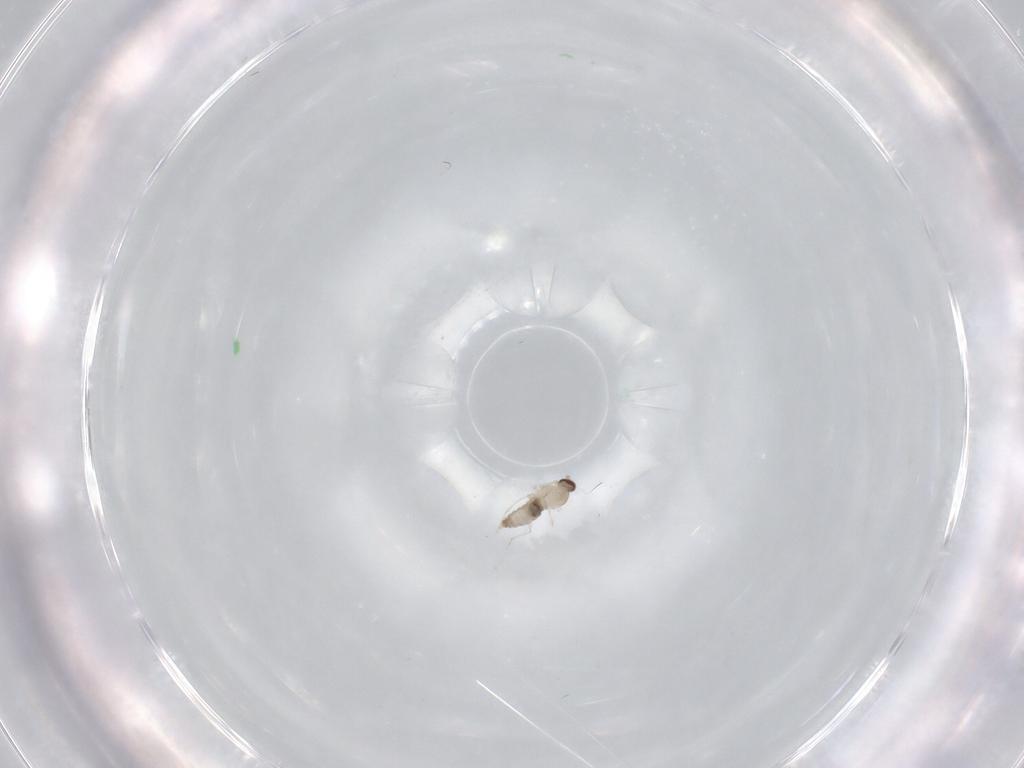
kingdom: Animalia
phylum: Arthropoda
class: Insecta
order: Diptera
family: Cecidomyiidae
